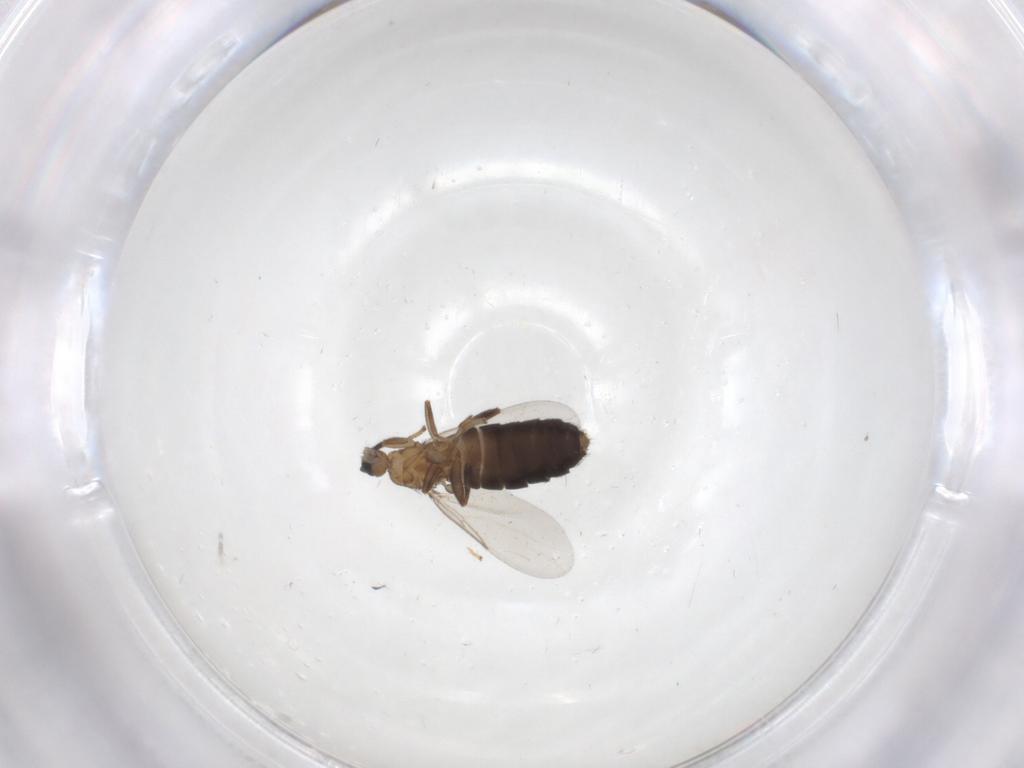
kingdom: Animalia
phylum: Arthropoda
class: Insecta
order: Diptera
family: Scatopsidae
